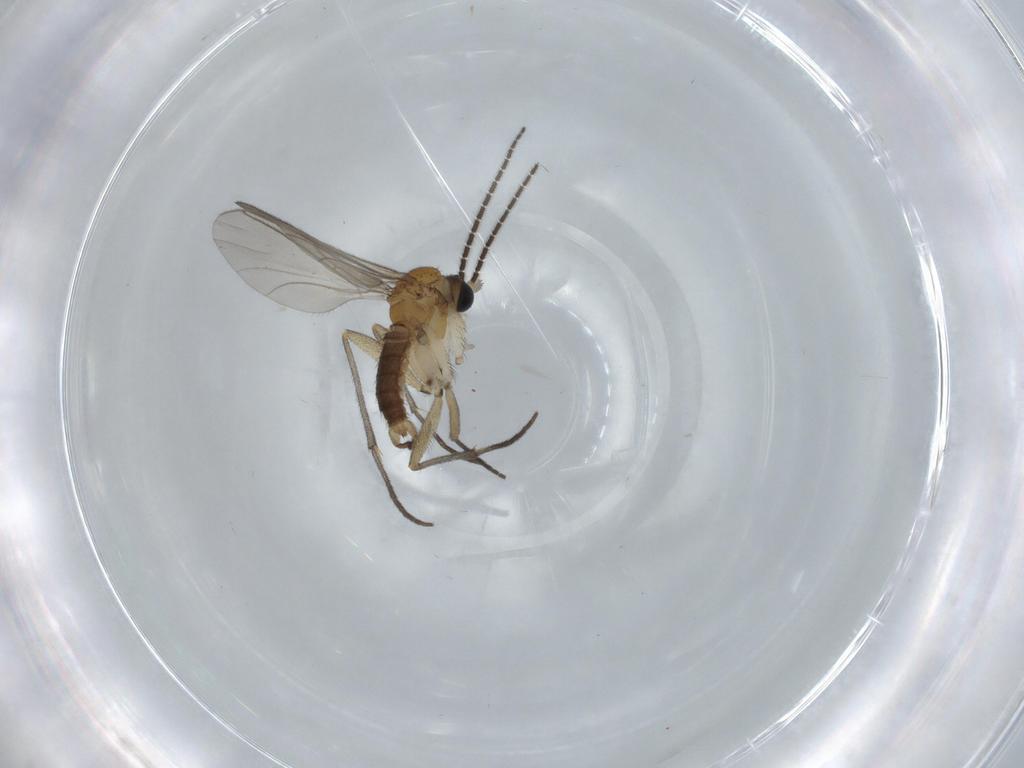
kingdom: Animalia
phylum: Arthropoda
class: Insecta
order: Diptera
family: Sciaridae
